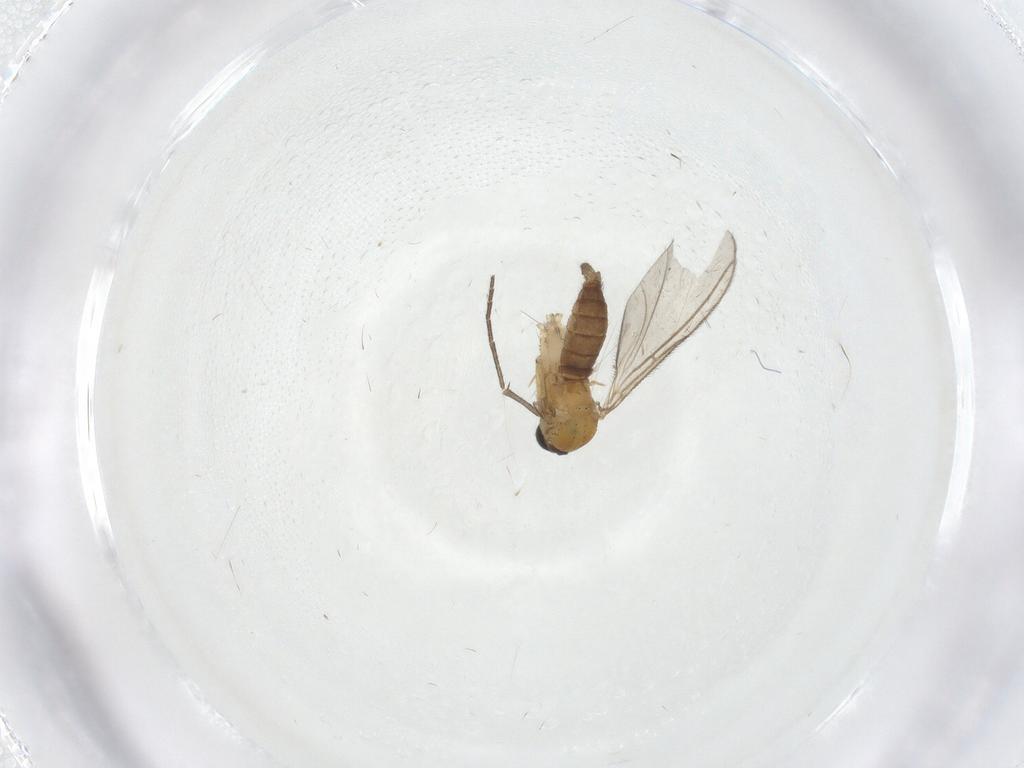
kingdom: Animalia
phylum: Arthropoda
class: Insecta
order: Diptera
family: Sciaridae
